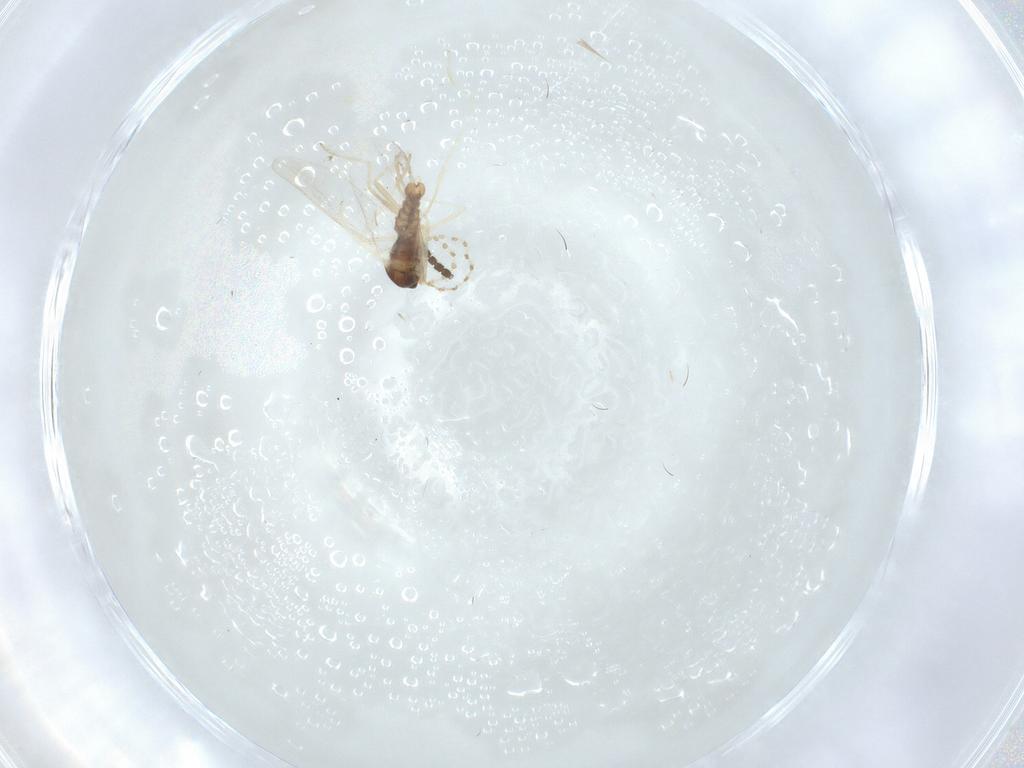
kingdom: Animalia
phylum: Arthropoda
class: Insecta
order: Diptera
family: Cecidomyiidae
